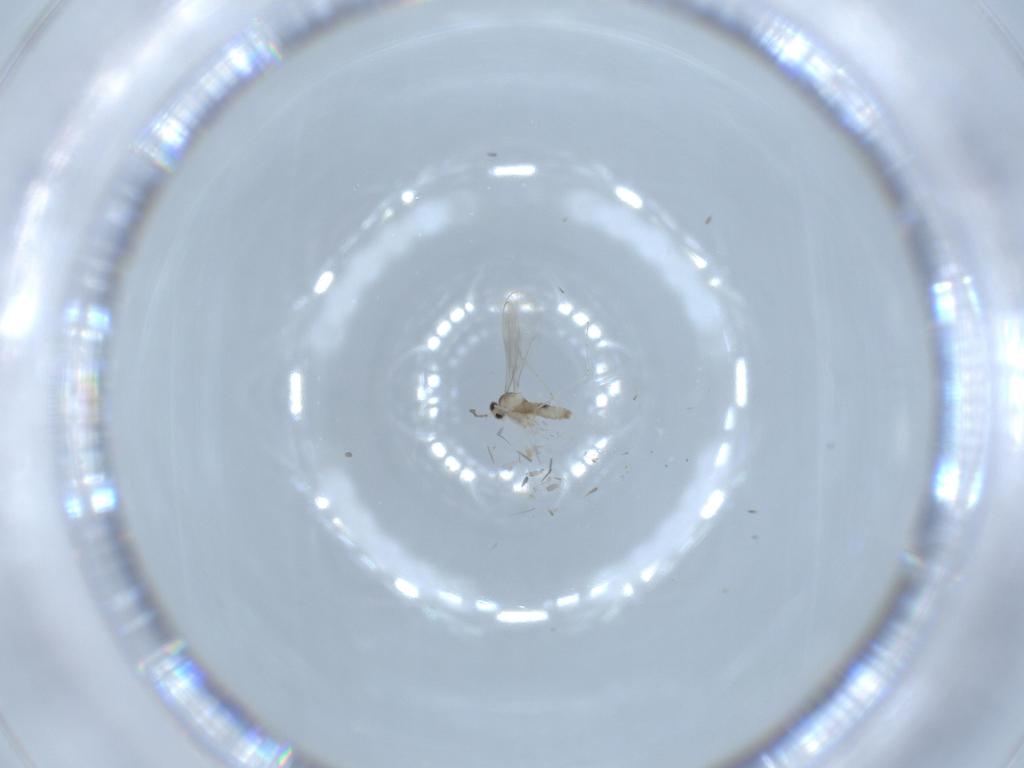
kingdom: Animalia
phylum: Arthropoda
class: Insecta
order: Diptera
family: Cecidomyiidae
